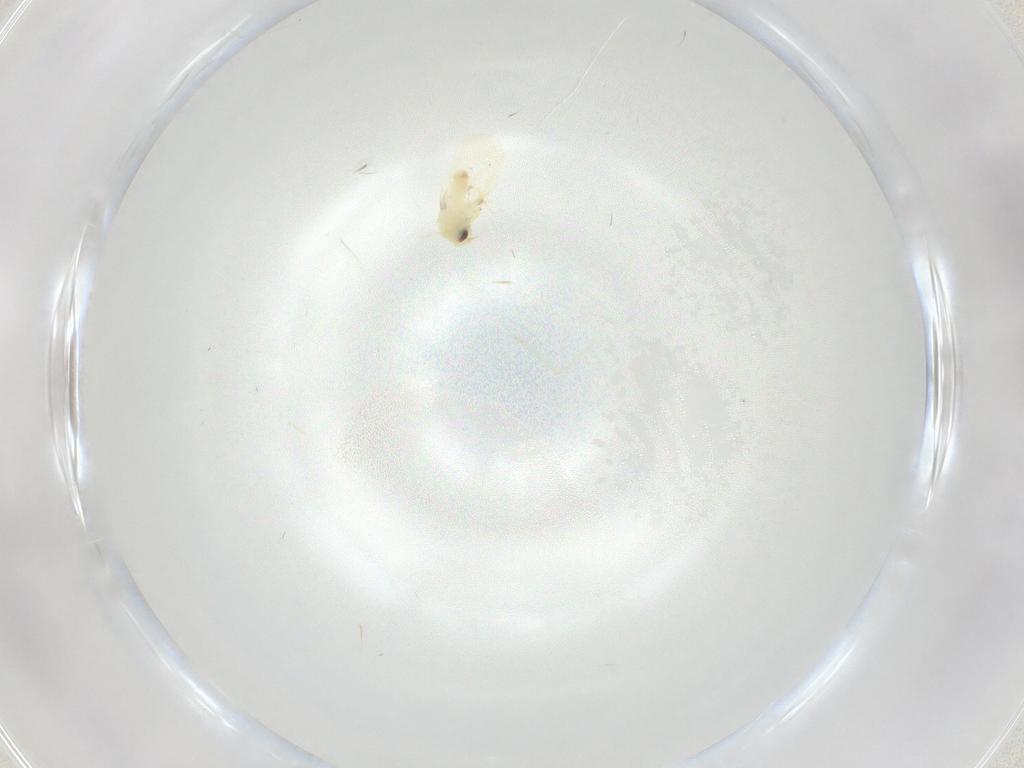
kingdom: Animalia
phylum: Arthropoda
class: Insecta
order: Hemiptera
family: Aleyrodidae
